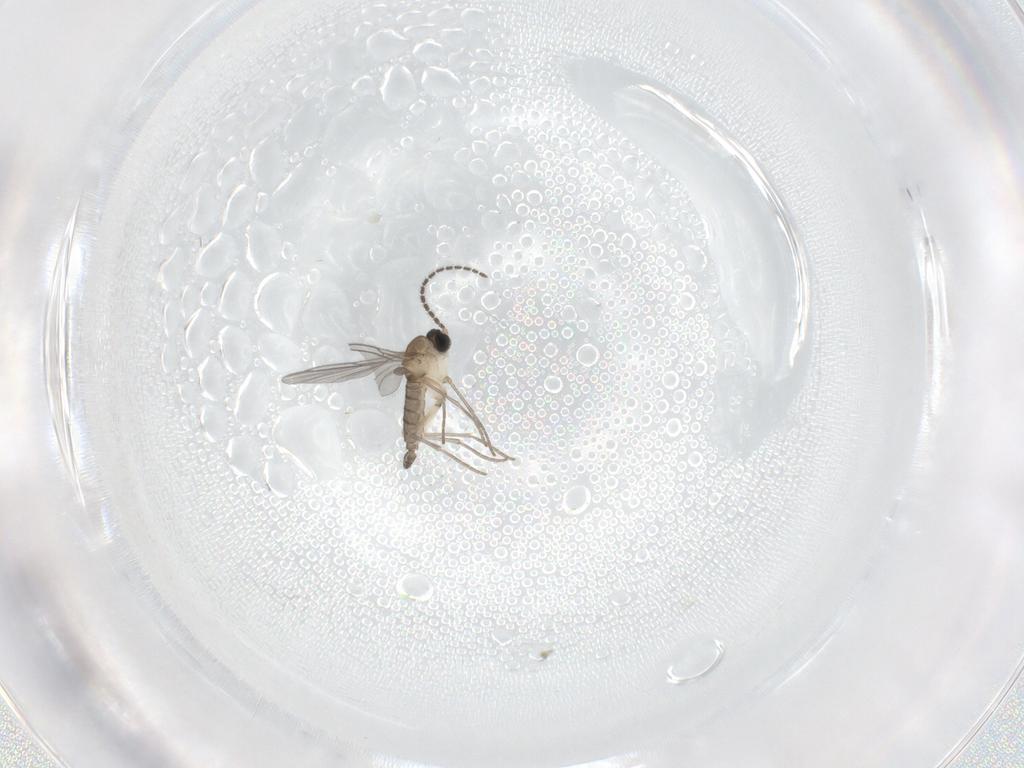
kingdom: Animalia
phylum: Arthropoda
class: Insecta
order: Diptera
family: Sciaridae
